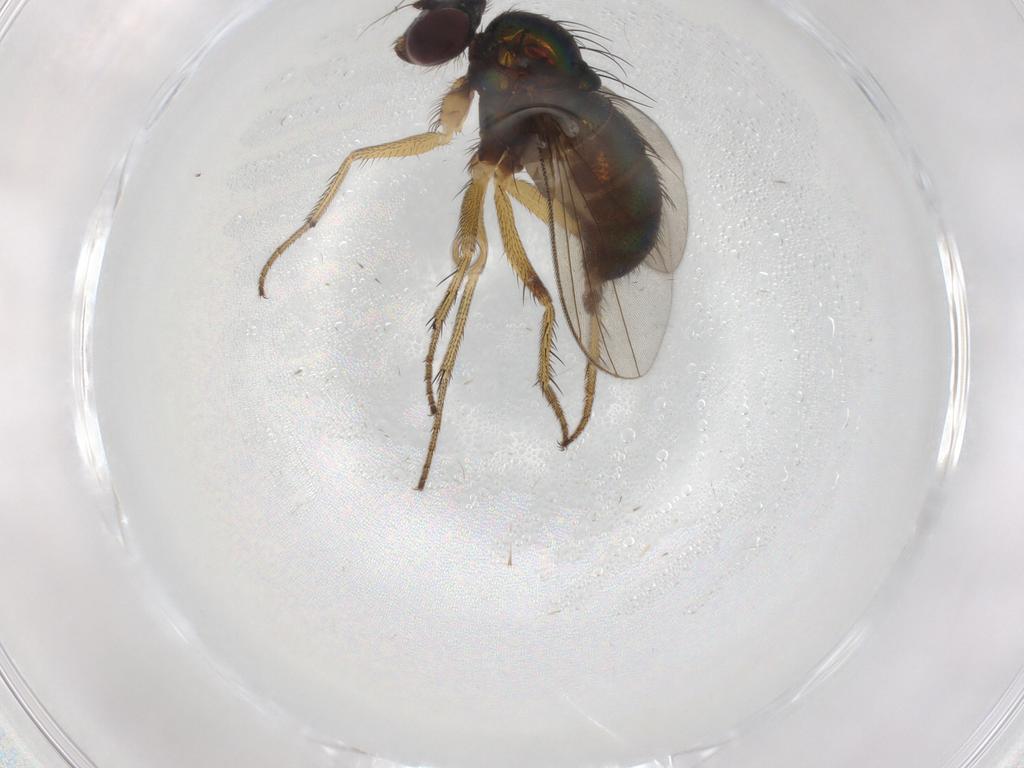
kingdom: Animalia
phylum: Arthropoda
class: Insecta
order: Diptera
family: Dolichopodidae
